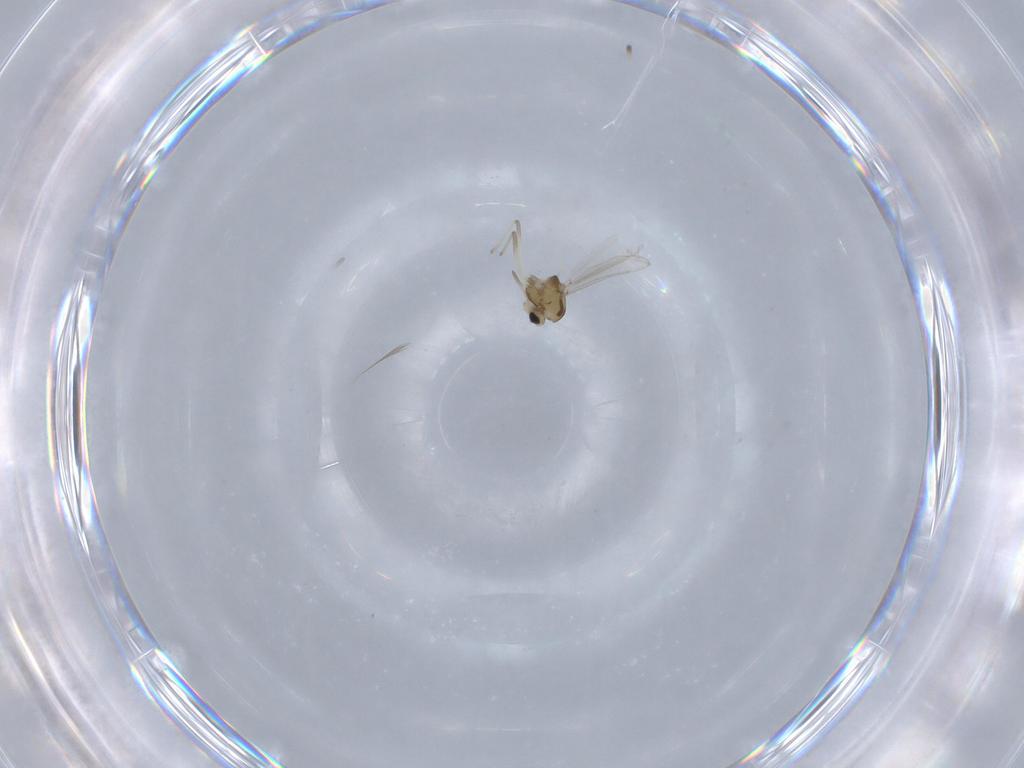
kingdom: Animalia
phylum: Arthropoda
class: Insecta
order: Diptera
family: Chironomidae
